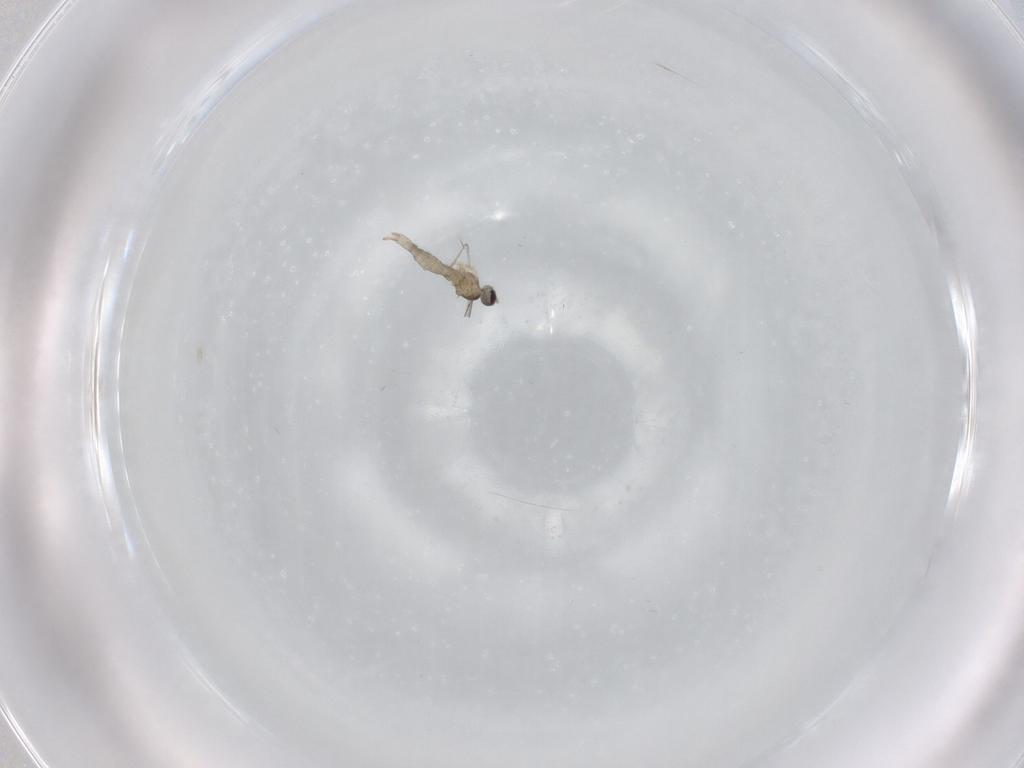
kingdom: Animalia
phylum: Arthropoda
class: Insecta
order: Diptera
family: Cecidomyiidae
